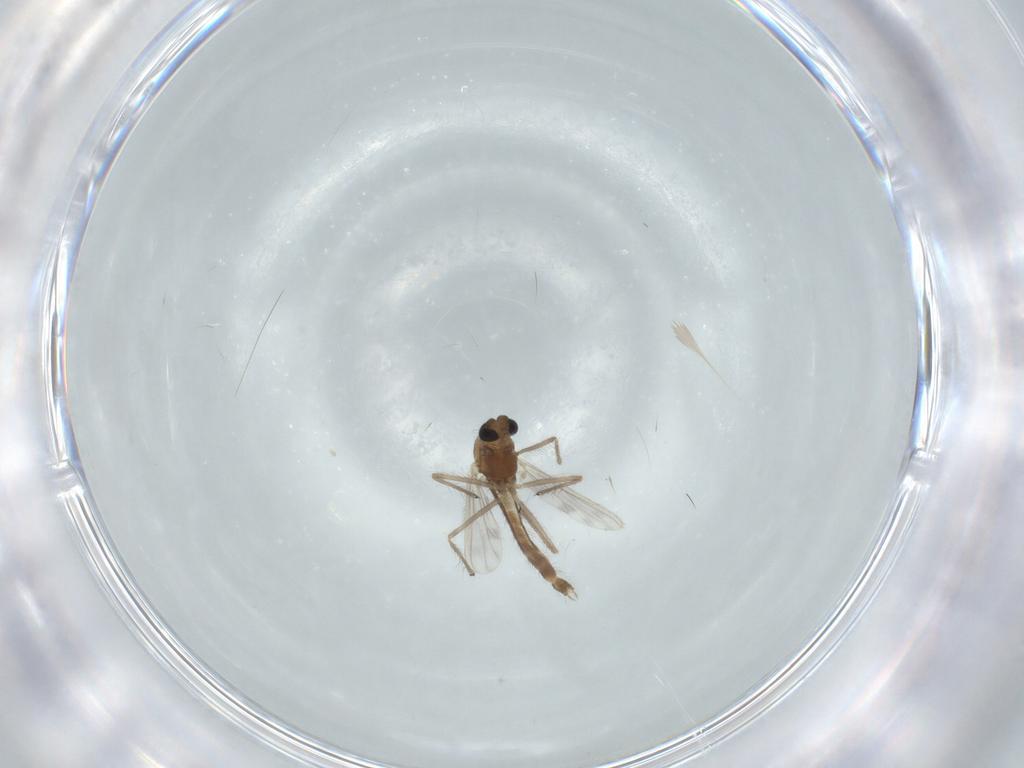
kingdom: Animalia
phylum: Arthropoda
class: Insecta
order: Diptera
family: Chironomidae
